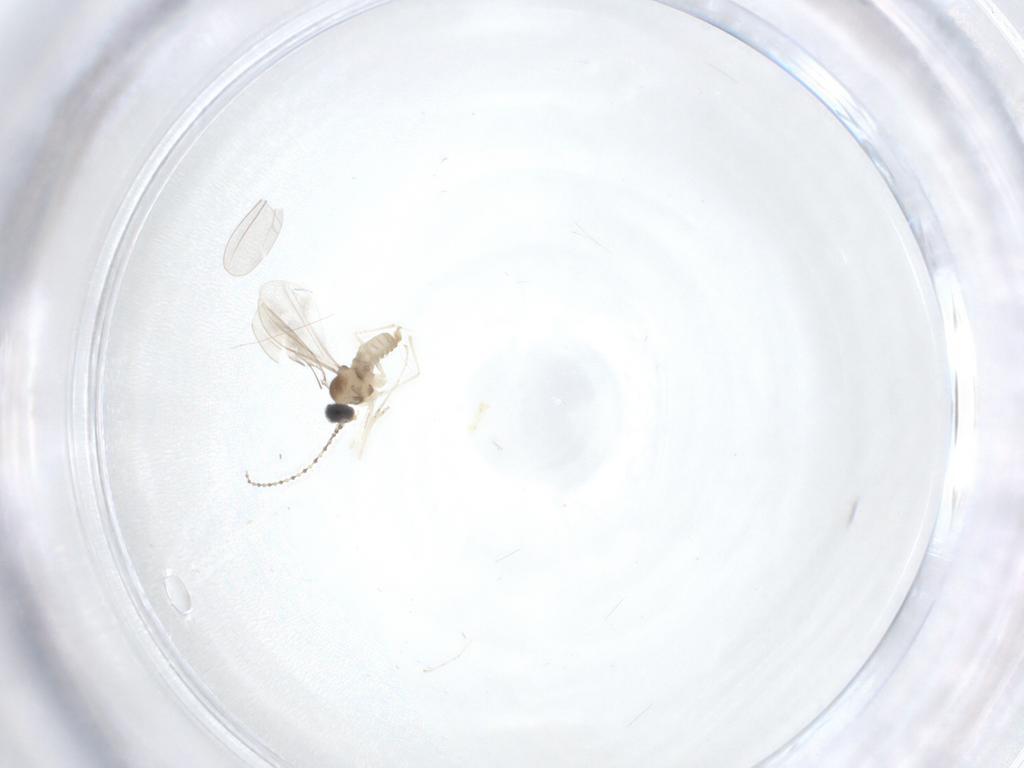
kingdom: Animalia
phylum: Arthropoda
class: Insecta
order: Diptera
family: Cecidomyiidae
